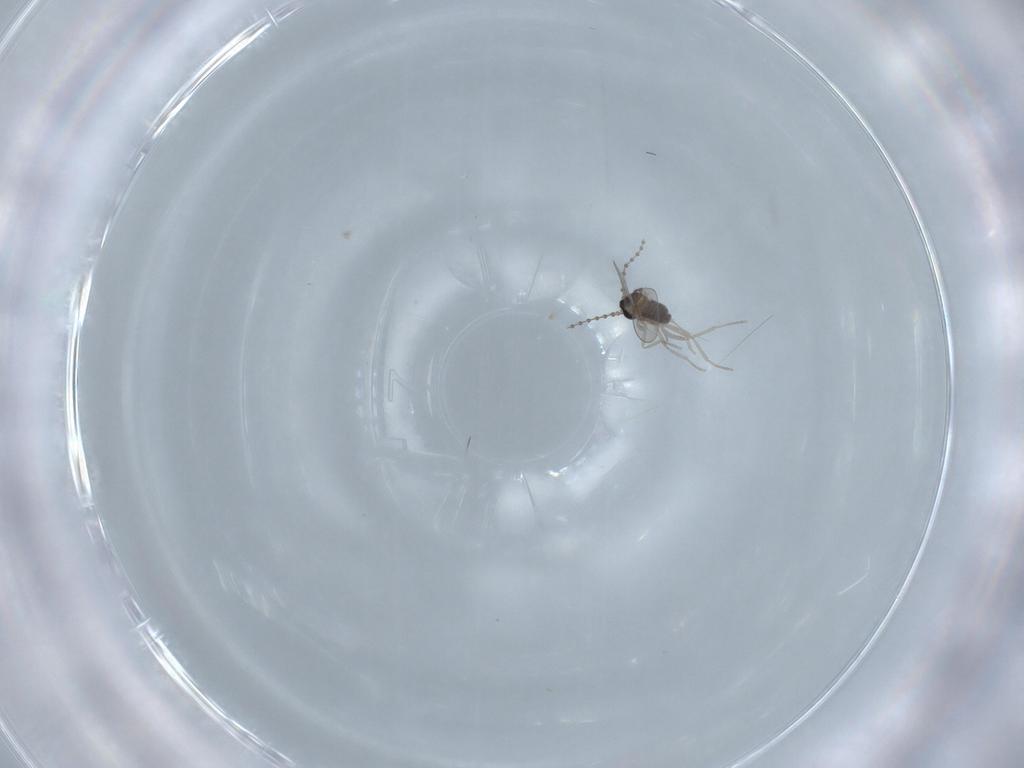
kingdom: Animalia
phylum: Arthropoda
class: Insecta
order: Diptera
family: Cecidomyiidae
